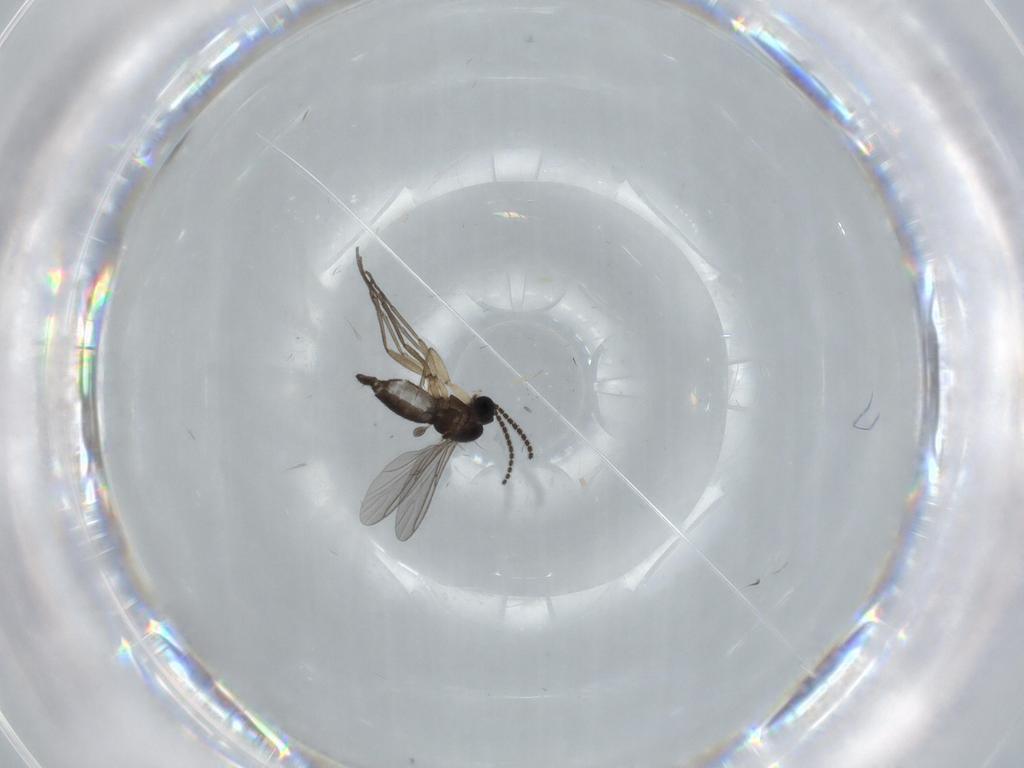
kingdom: Animalia
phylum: Arthropoda
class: Insecta
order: Diptera
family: Sciaridae
